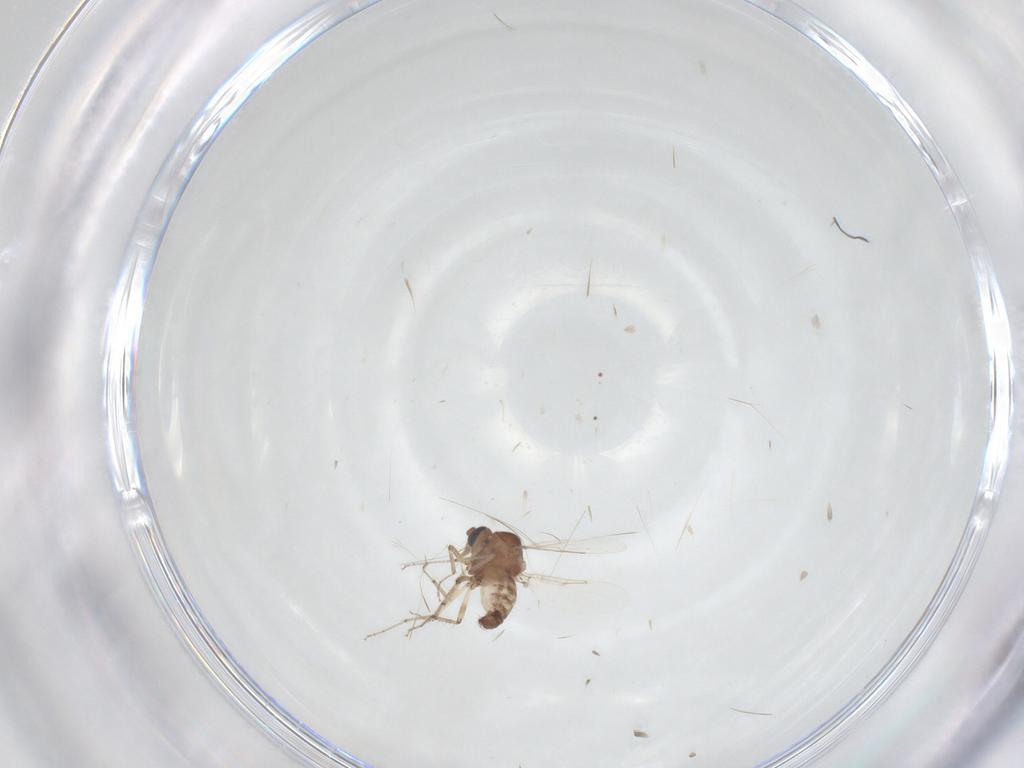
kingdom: Animalia
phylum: Arthropoda
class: Insecta
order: Diptera
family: Ceratopogonidae
